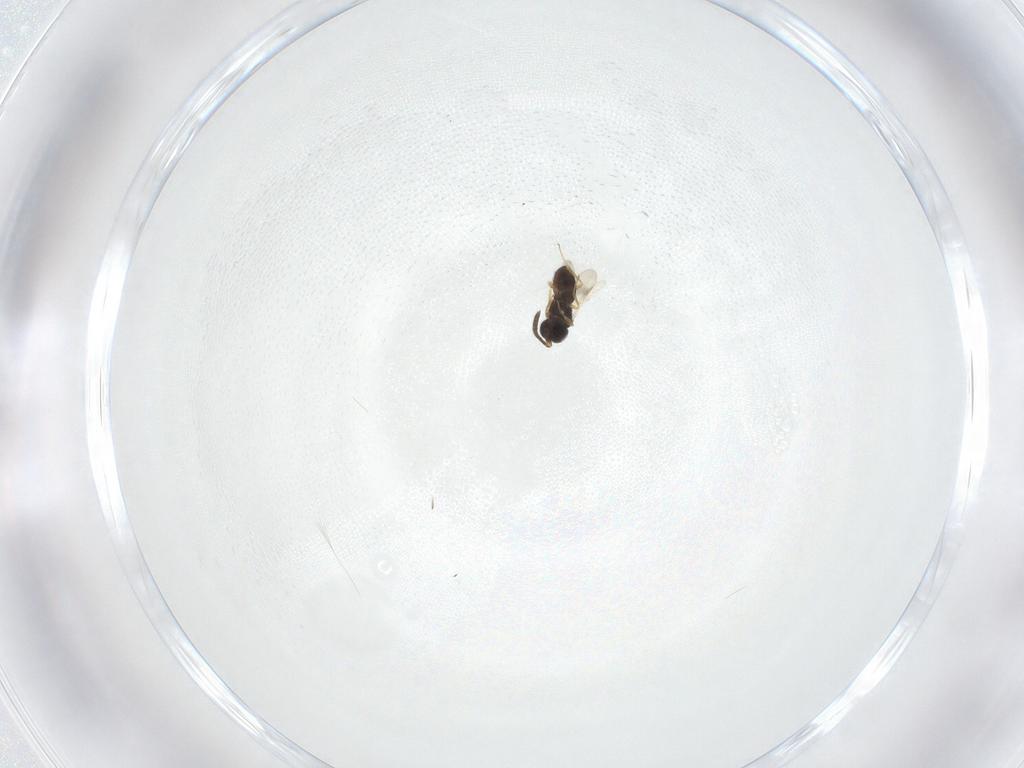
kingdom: Animalia
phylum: Arthropoda
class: Insecta
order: Hymenoptera
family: Scelionidae
